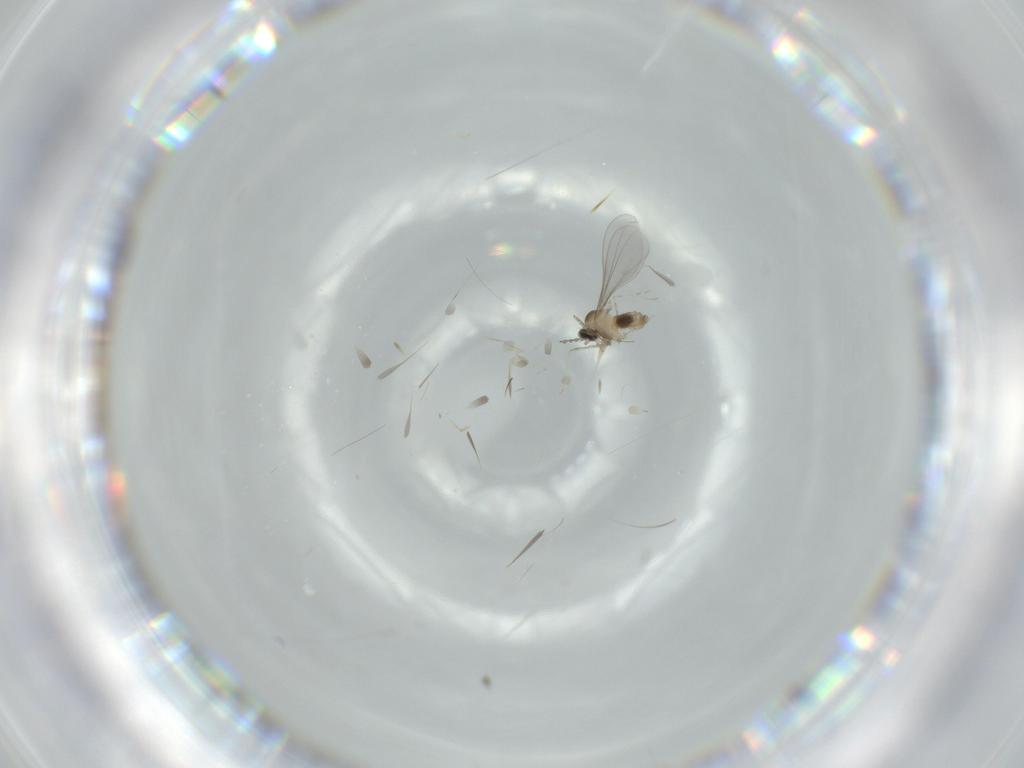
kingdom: Animalia
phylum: Arthropoda
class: Insecta
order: Diptera
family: Cecidomyiidae
